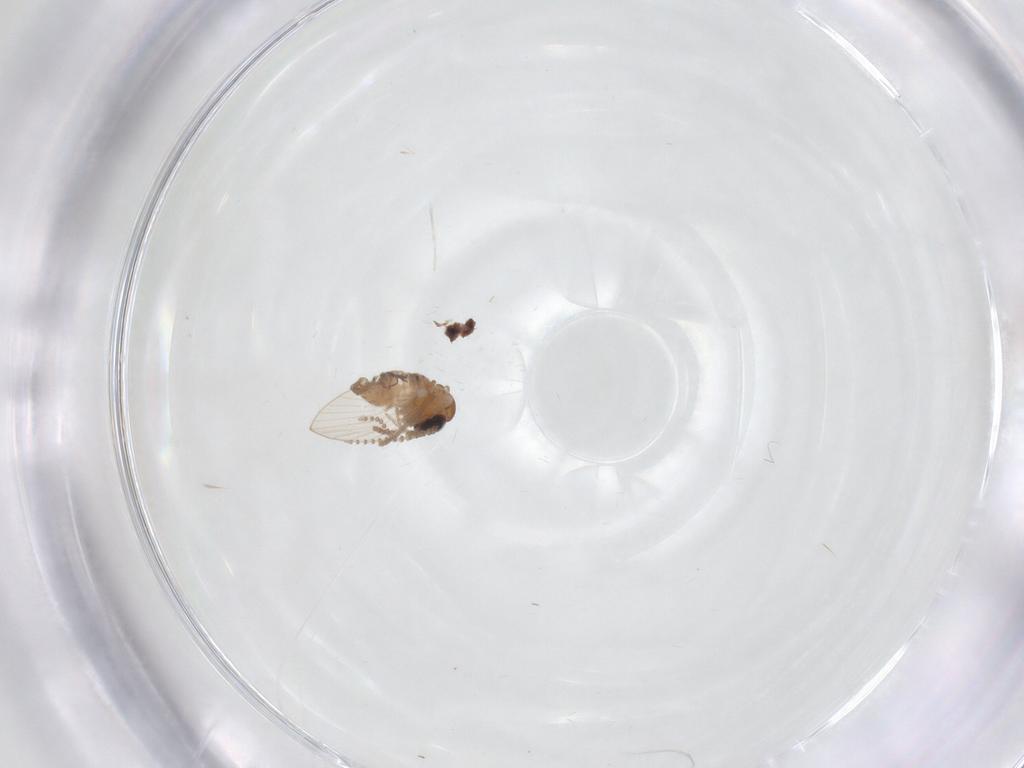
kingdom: Animalia
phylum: Arthropoda
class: Insecta
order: Diptera
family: Psychodidae
